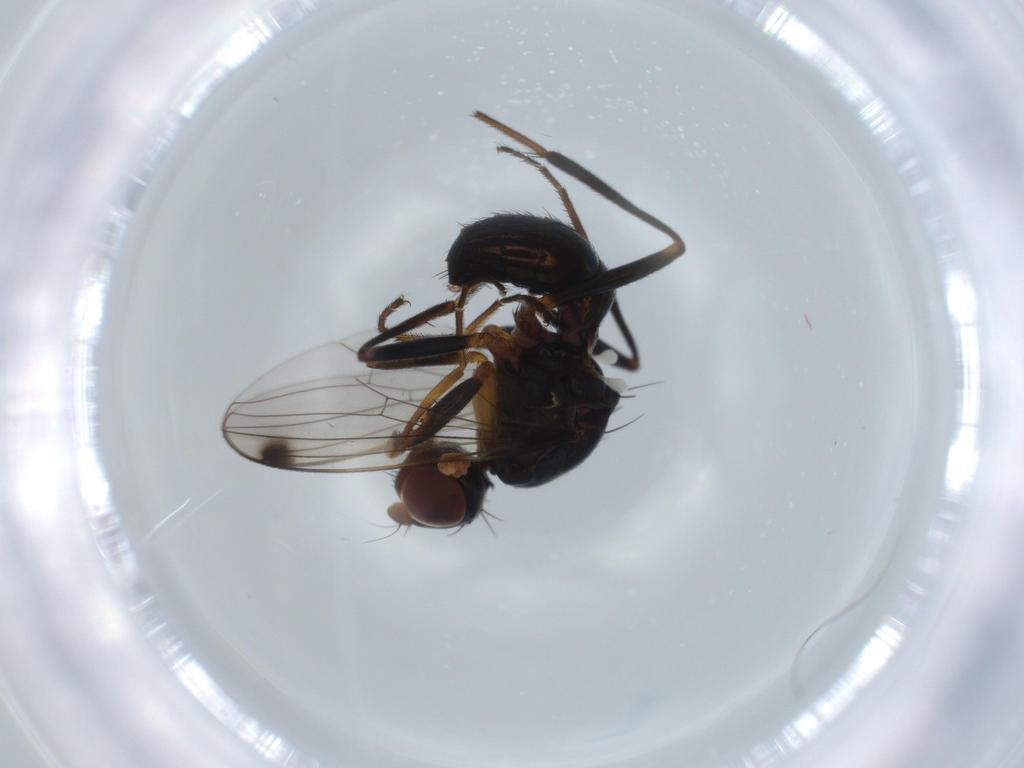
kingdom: Animalia
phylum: Arthropoda
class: Insecta
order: Diptera
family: Sepsidae
